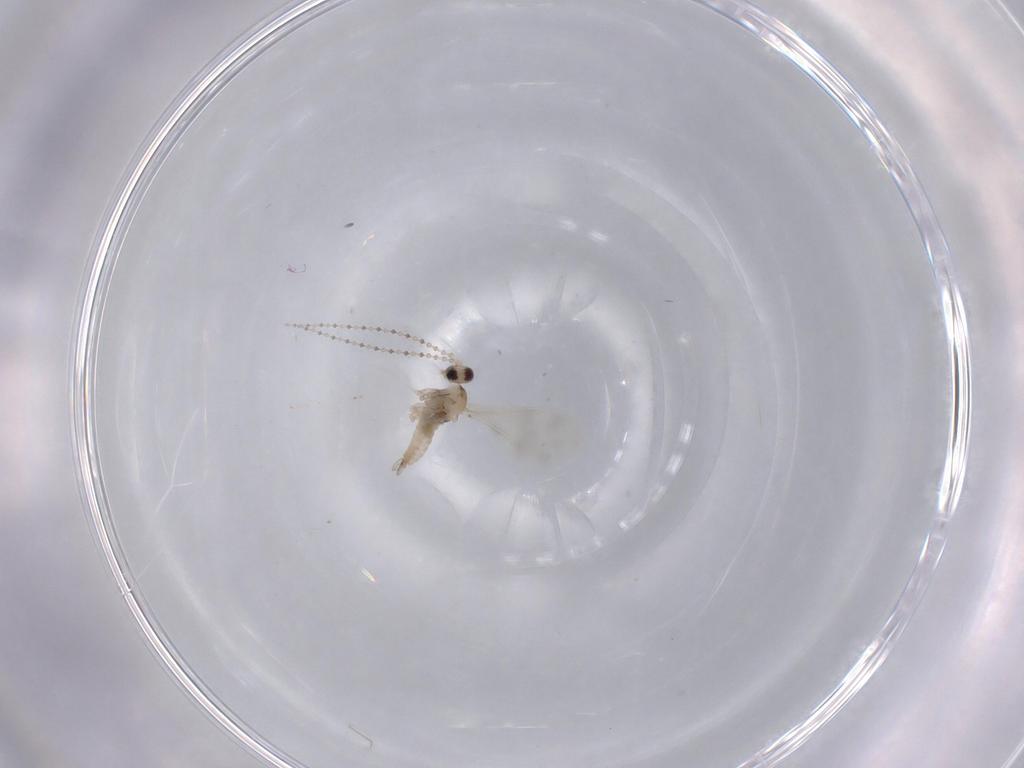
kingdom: Animalia
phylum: Arthropoda
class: Insecta
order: Diptera
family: Cecidomyiidae
